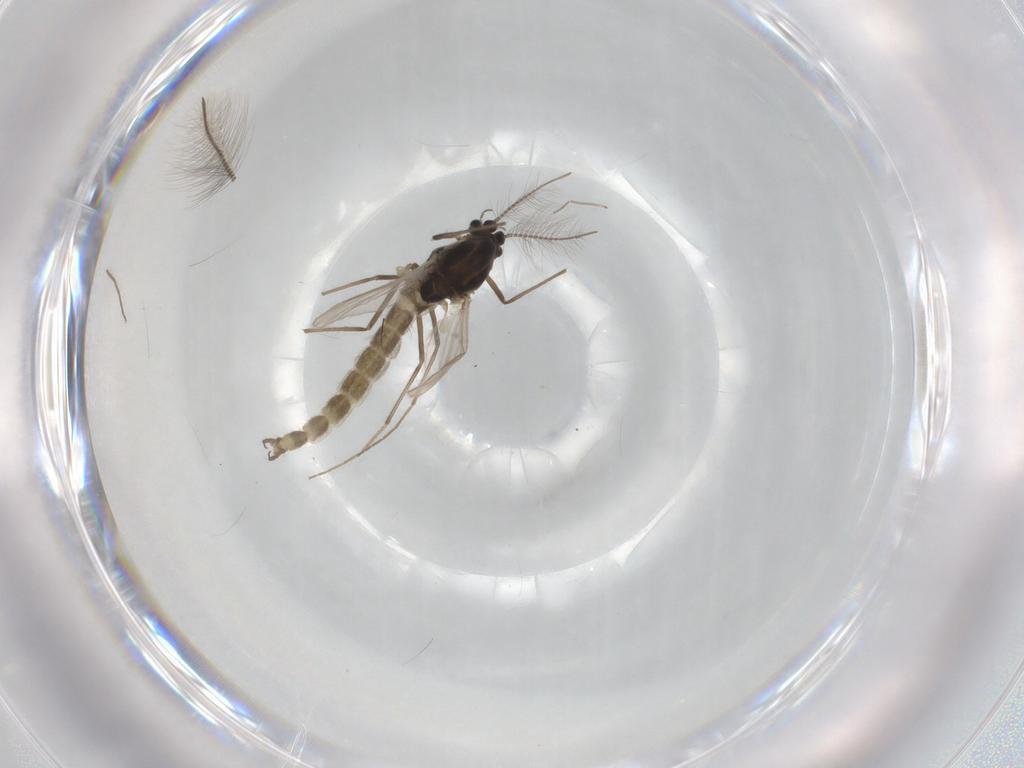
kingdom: Animalia
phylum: Arthropoda
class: Insecta
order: Diptera
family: Chironomidae
